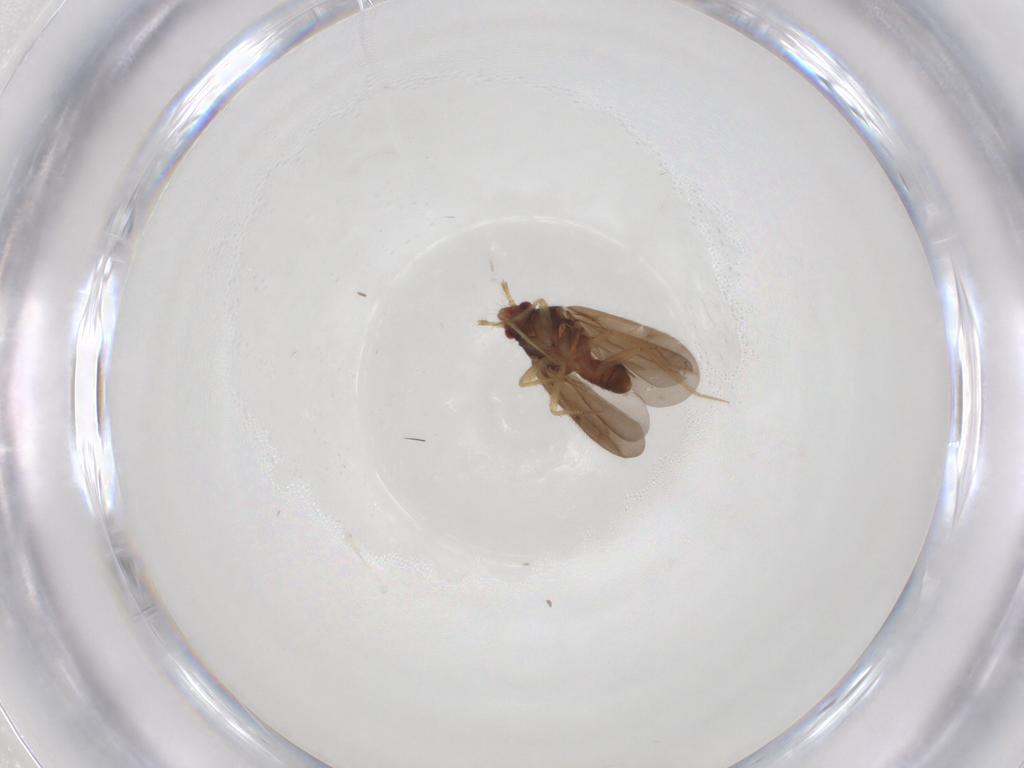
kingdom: Animalia
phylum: Arthropoda
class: Insecta
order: Hemiptera
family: Ceratocombidae
